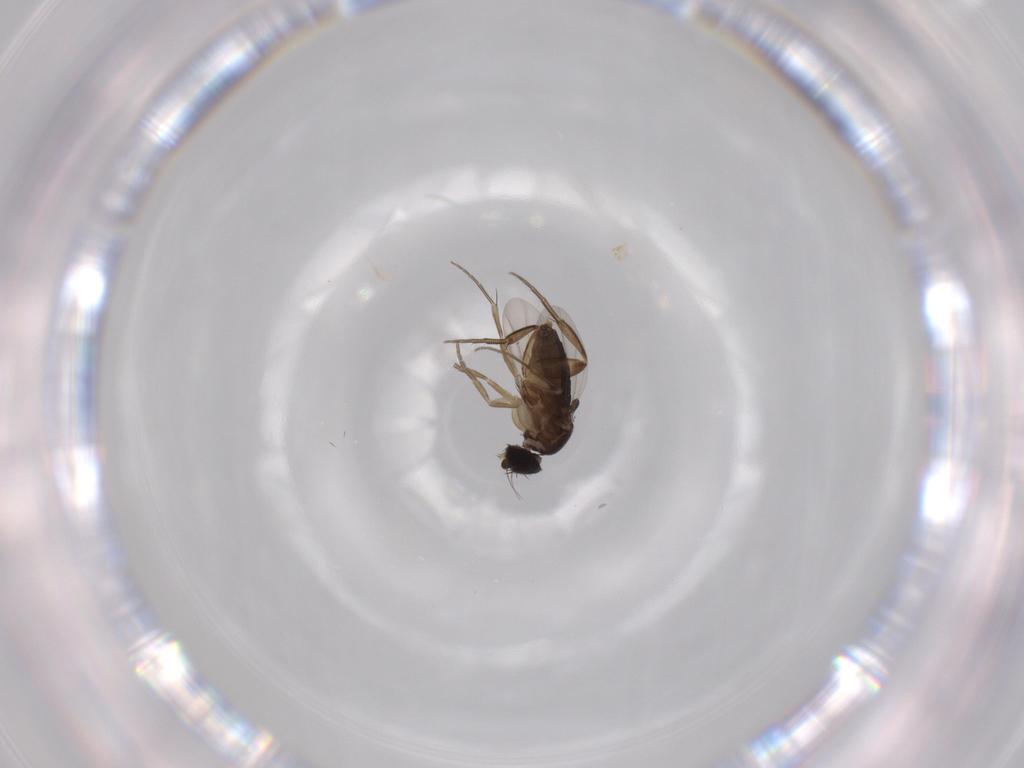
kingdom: Animalia
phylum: Arthropoda
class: Insecta
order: Diptera
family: Phoridae
